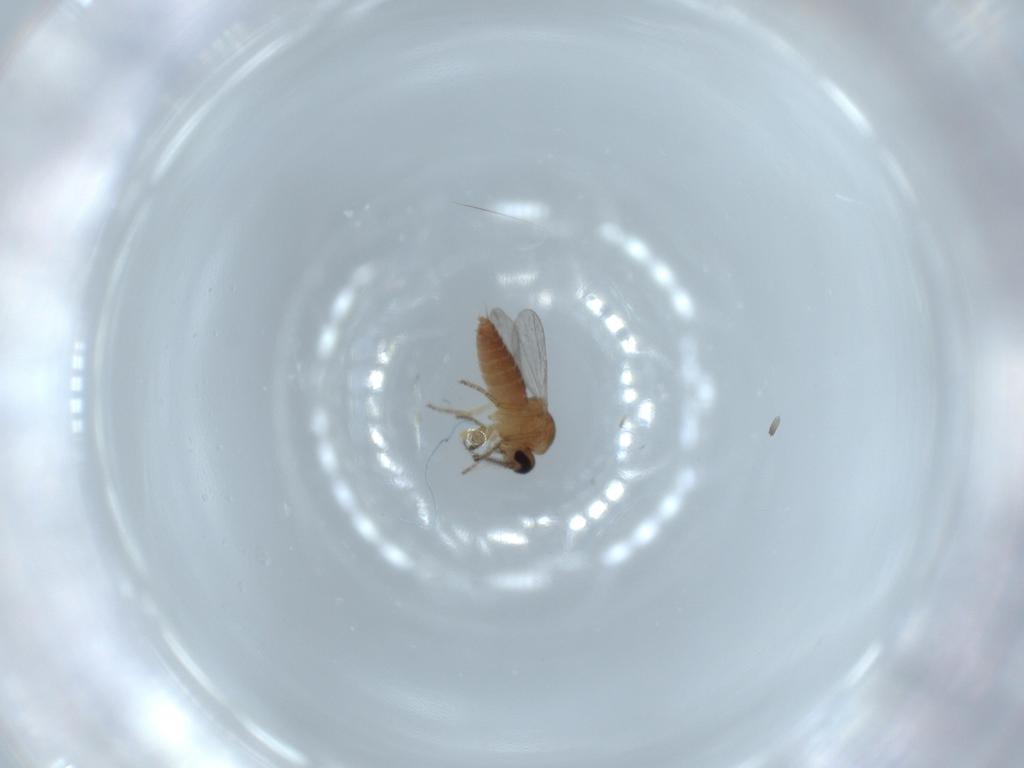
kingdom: Animalia
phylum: Arthropoda
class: Insecta
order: Diptera
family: Ceratopogonidae
